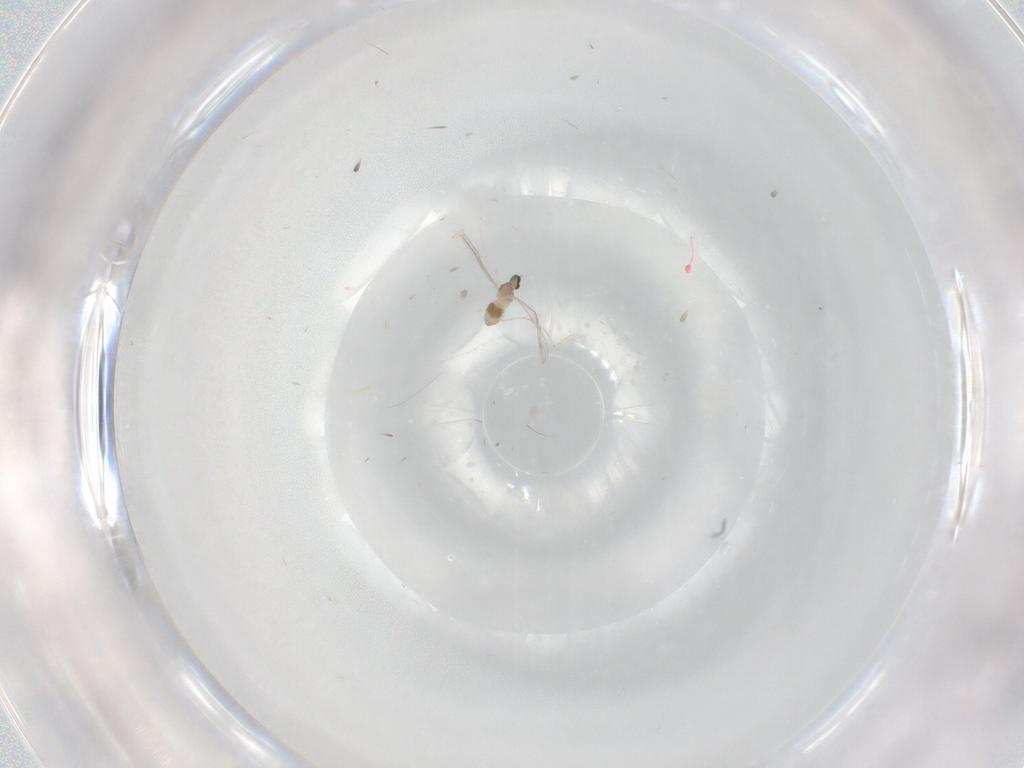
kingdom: Animalia
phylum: Arthropoda
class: Insecta
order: Diptera
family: Cecidomyiidae
